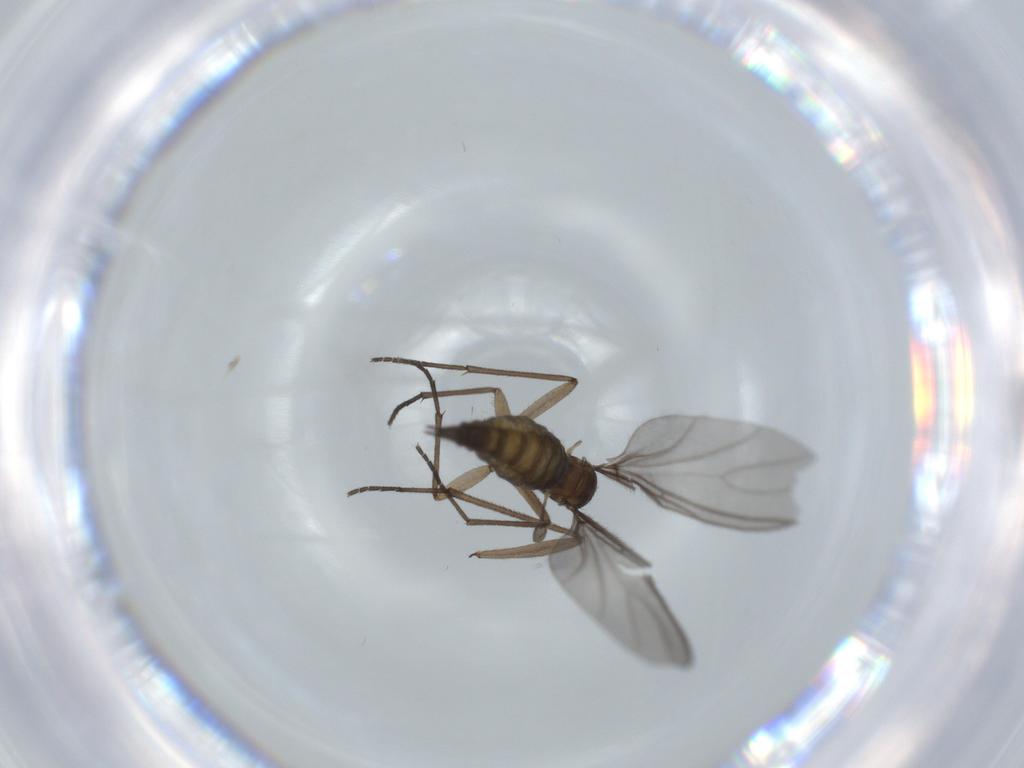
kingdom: Animalia
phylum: Arthropoda
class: Insecta
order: Diptera
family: Sciaridae
